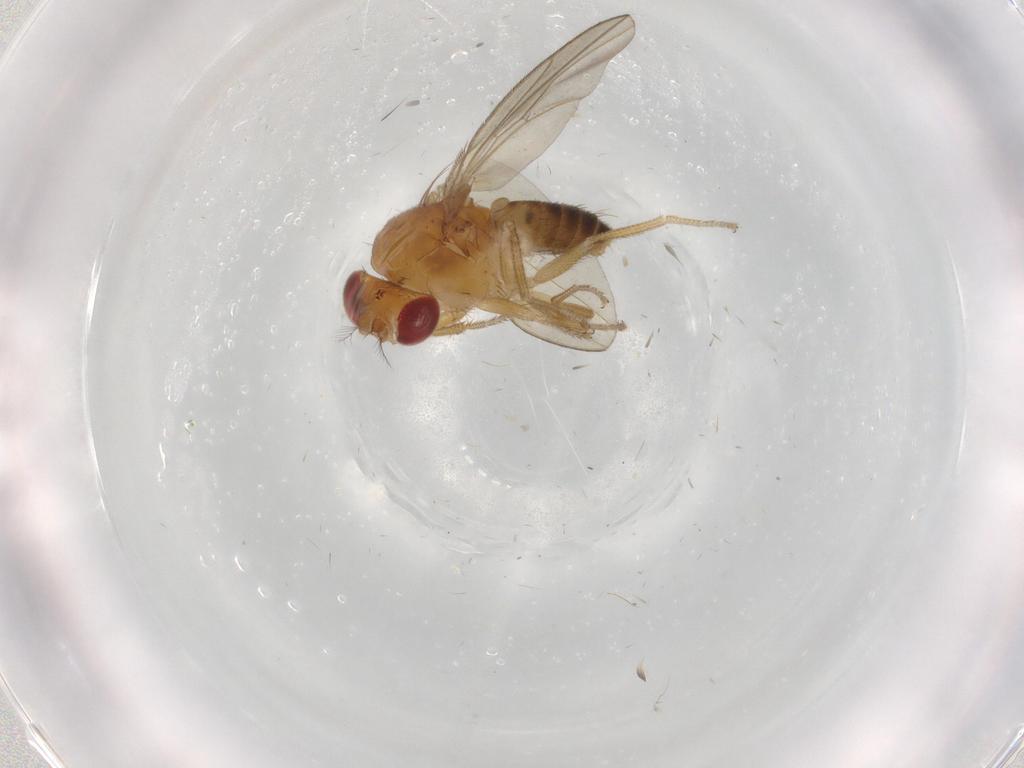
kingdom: Animalia
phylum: Arthropoda
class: Insecta
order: Diptera
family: Drosophilidae
